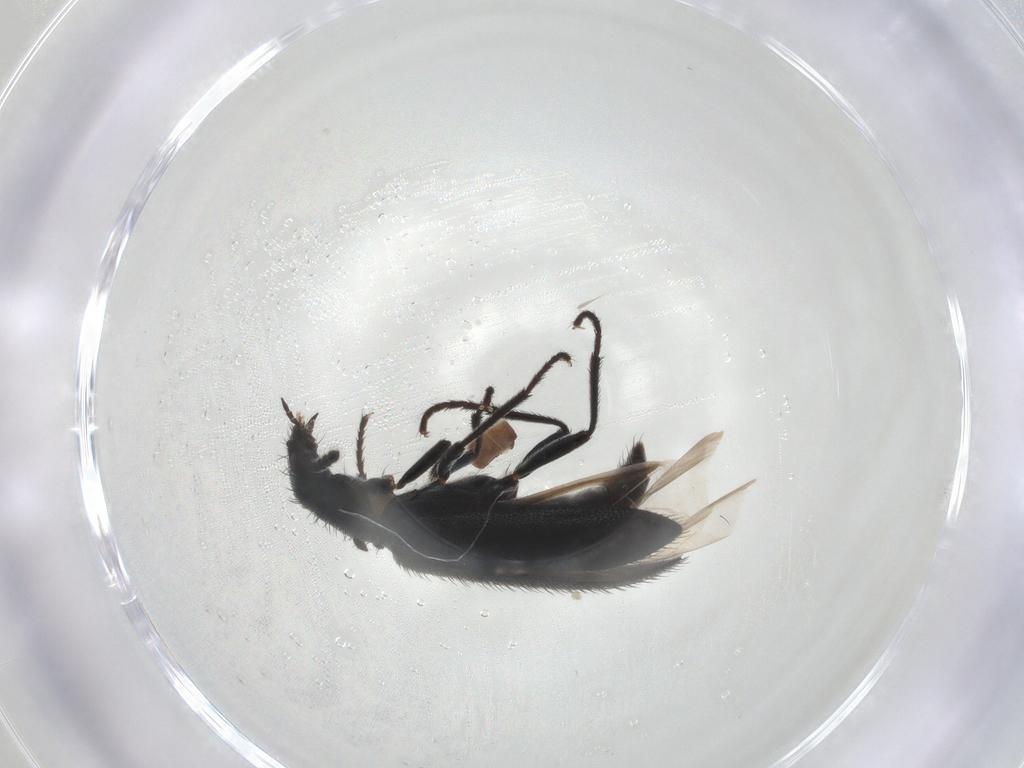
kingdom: Animalia
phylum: Arthropoda
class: Insecta
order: Coleoptera
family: Melyridae
